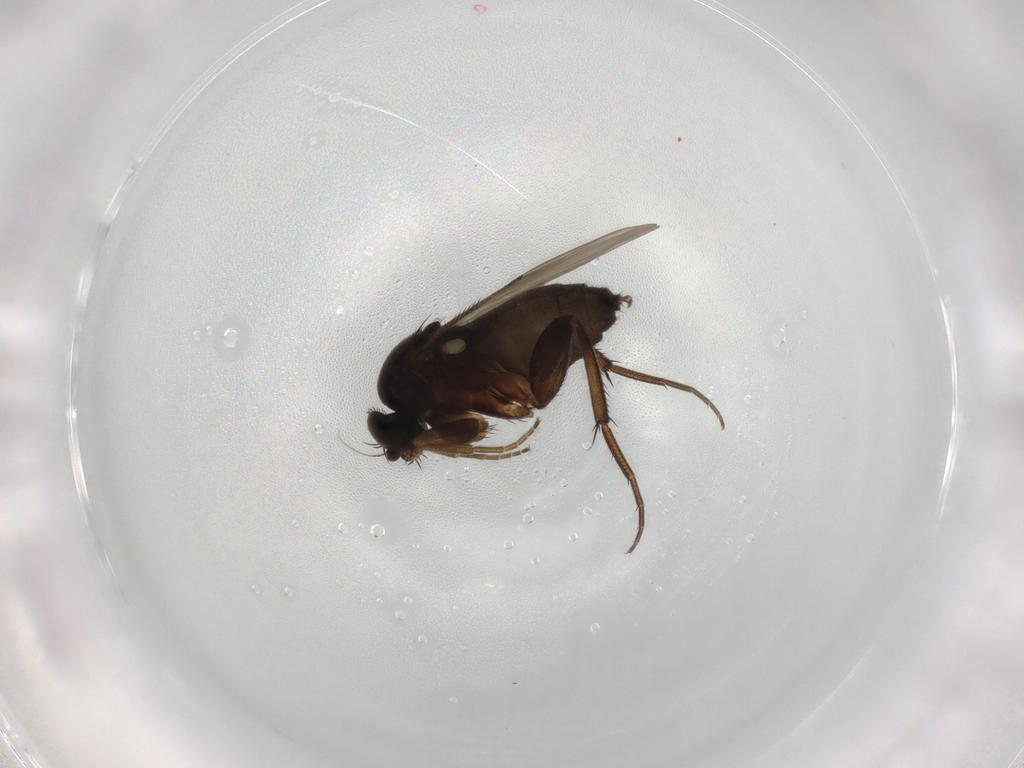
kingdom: Animalia
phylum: Arthropoda
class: Insecta
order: Diptera
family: Phoridae
